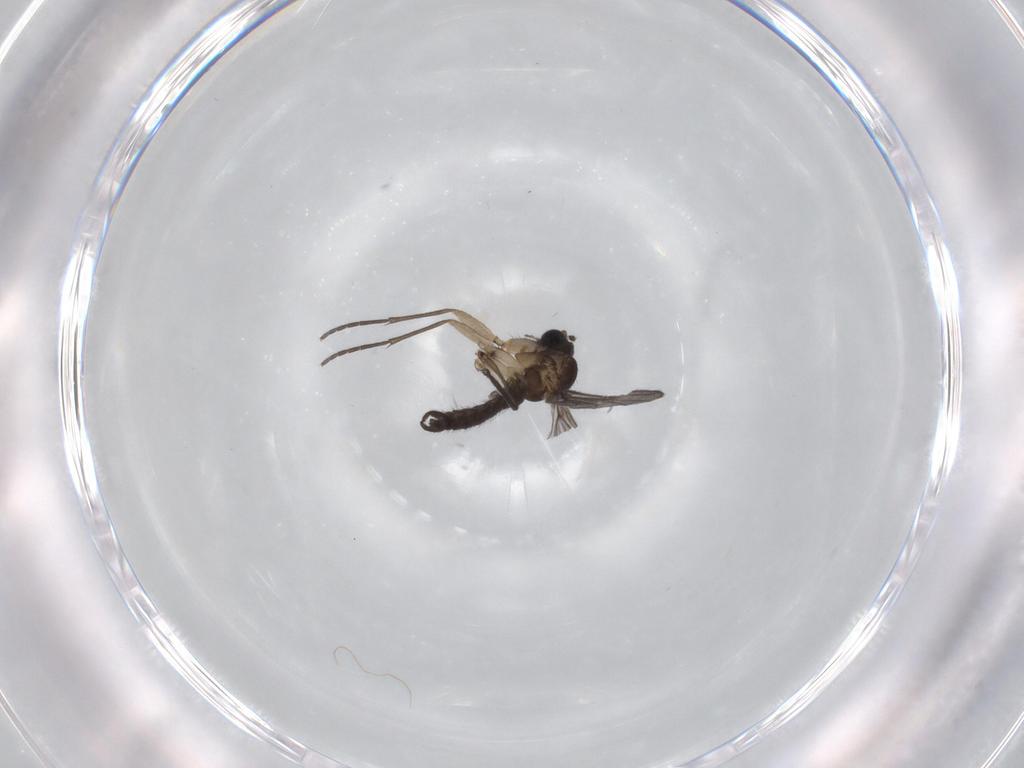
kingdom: Animalia
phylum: Arthropoda
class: Insecta
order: Diptera
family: Sciaridae
